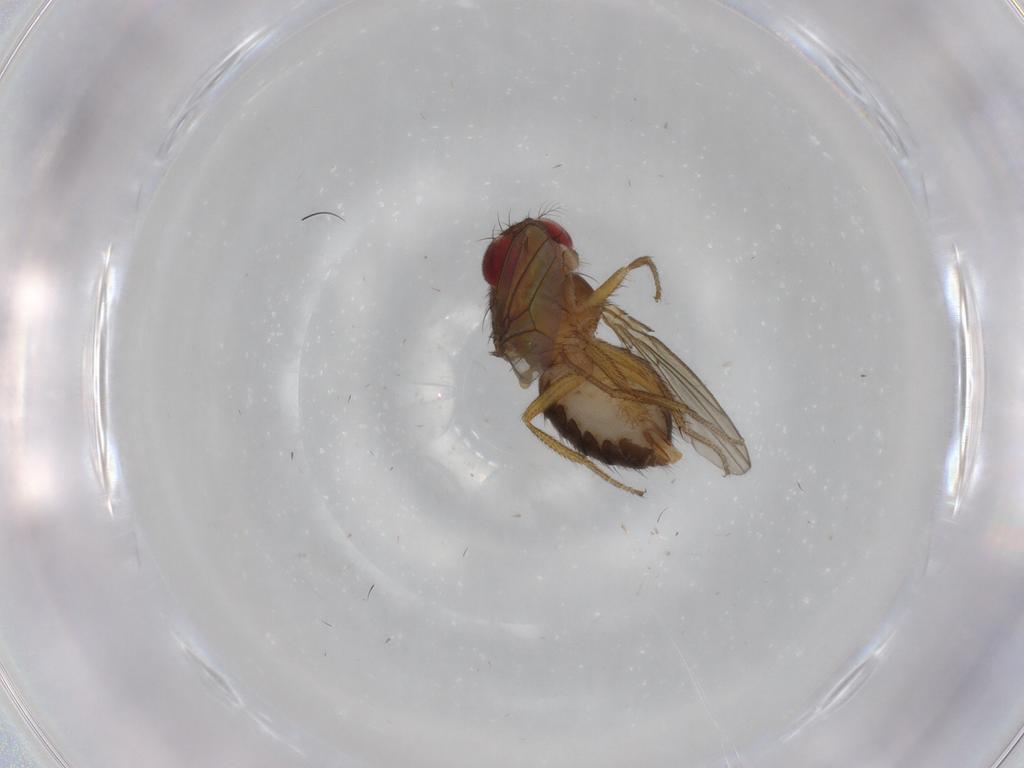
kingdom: Animalia
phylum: Arthropoda
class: Insecta
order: Diptera
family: Drosophilidae
